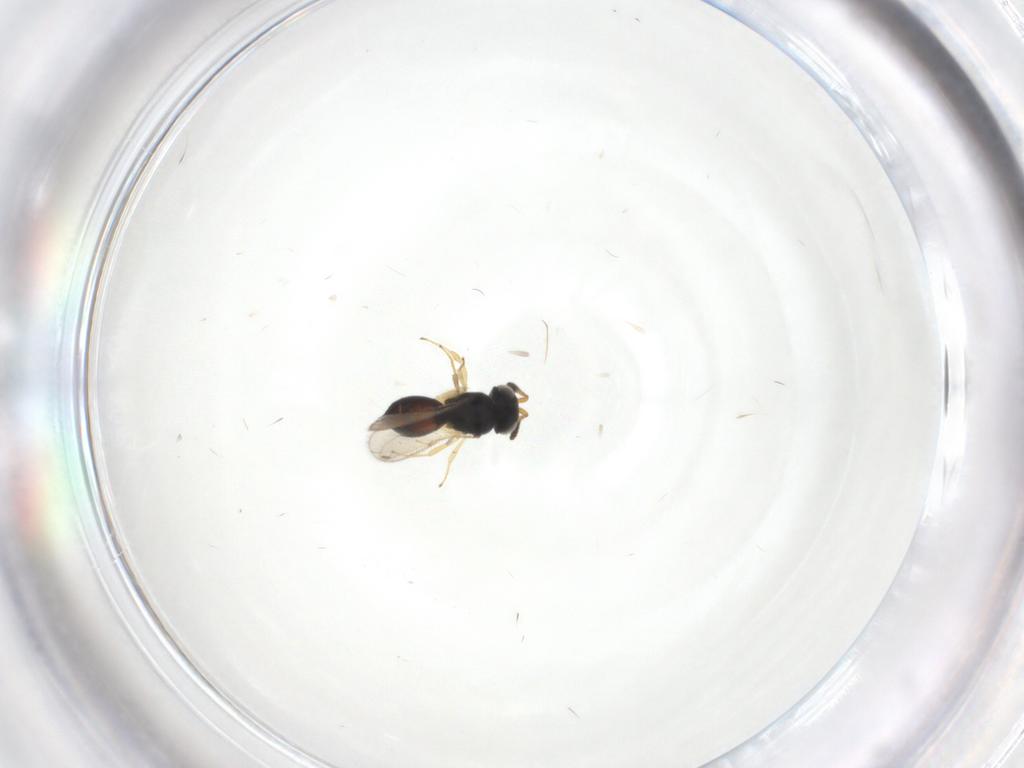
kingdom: Animalia
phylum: Arthropoda
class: Insecta
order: Hymenoptera
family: Scelionidae
